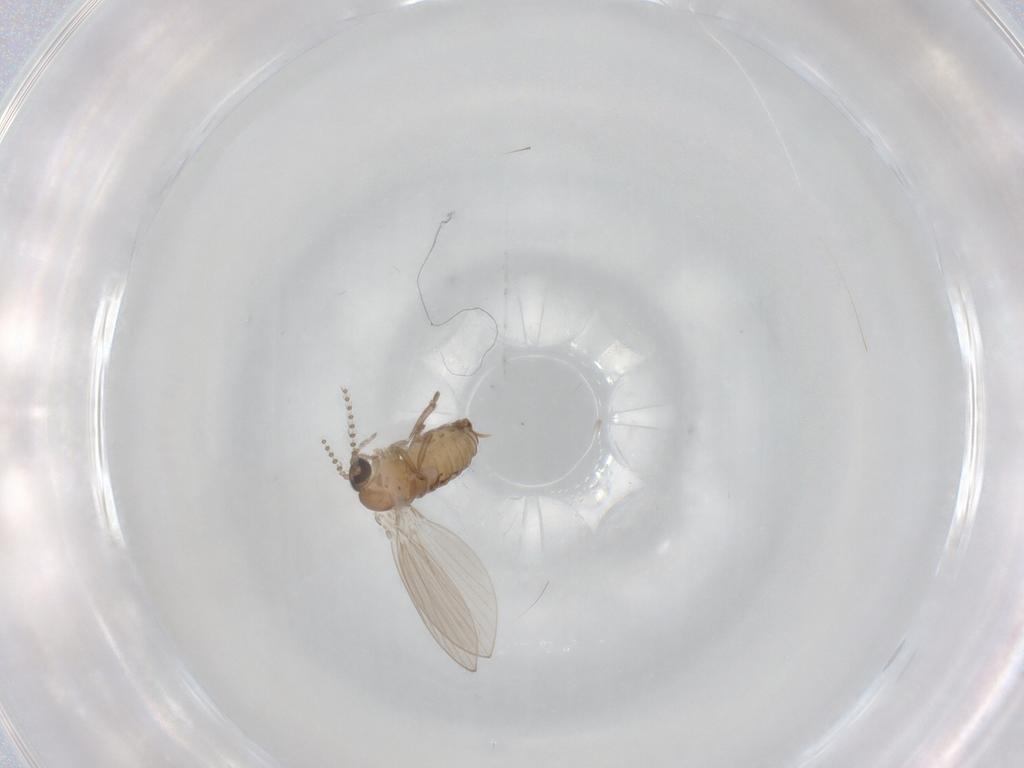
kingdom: Animalia
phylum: Arthropoda
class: Insecta
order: Diptera
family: Psychodidae
